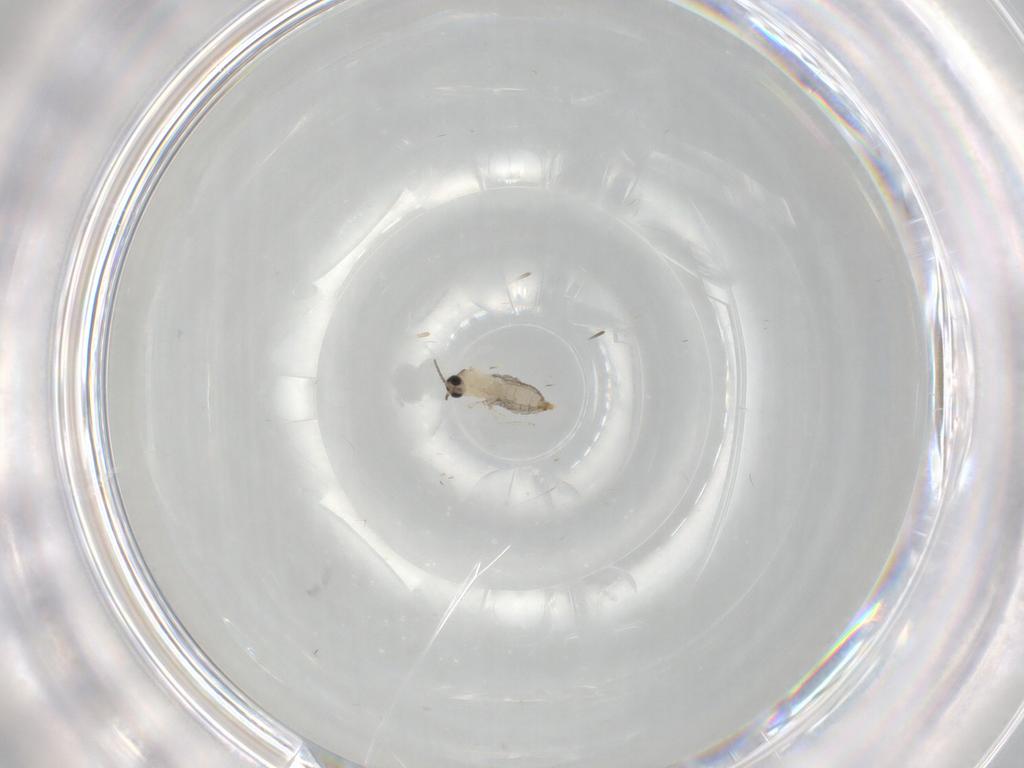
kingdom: Animalia
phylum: Arthropoda
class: Insecta
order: Diptera
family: Cecidomyiidae
